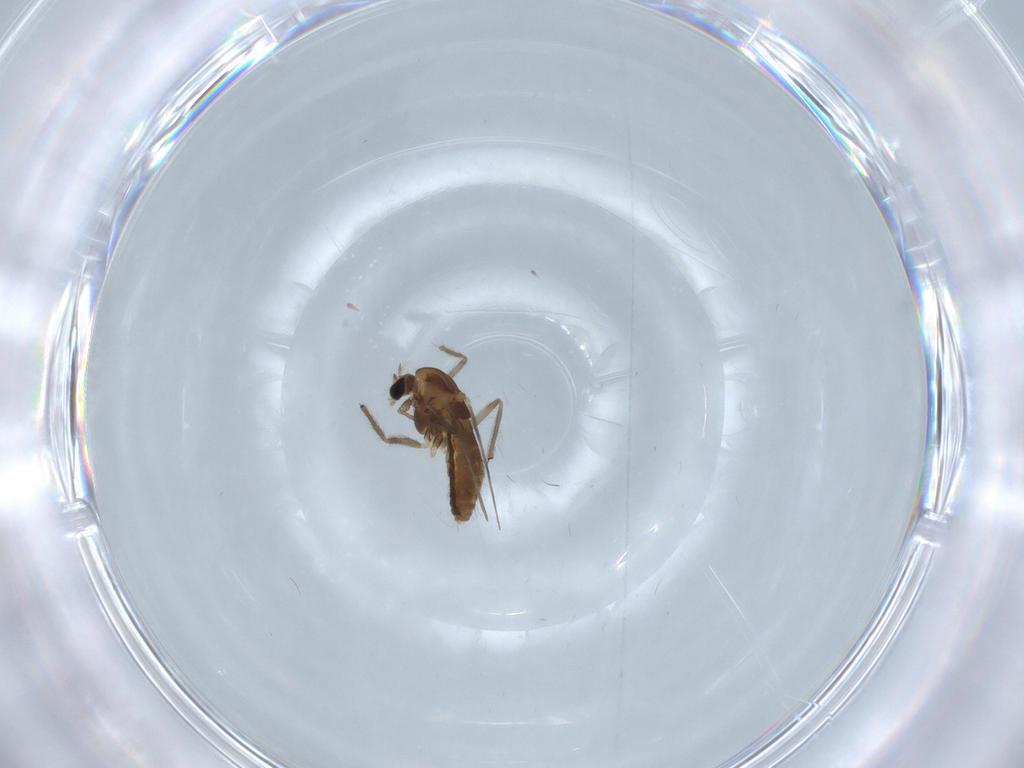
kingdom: Animalia
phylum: Arthropoda
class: Insecta
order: Diptera
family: Chironomidae
